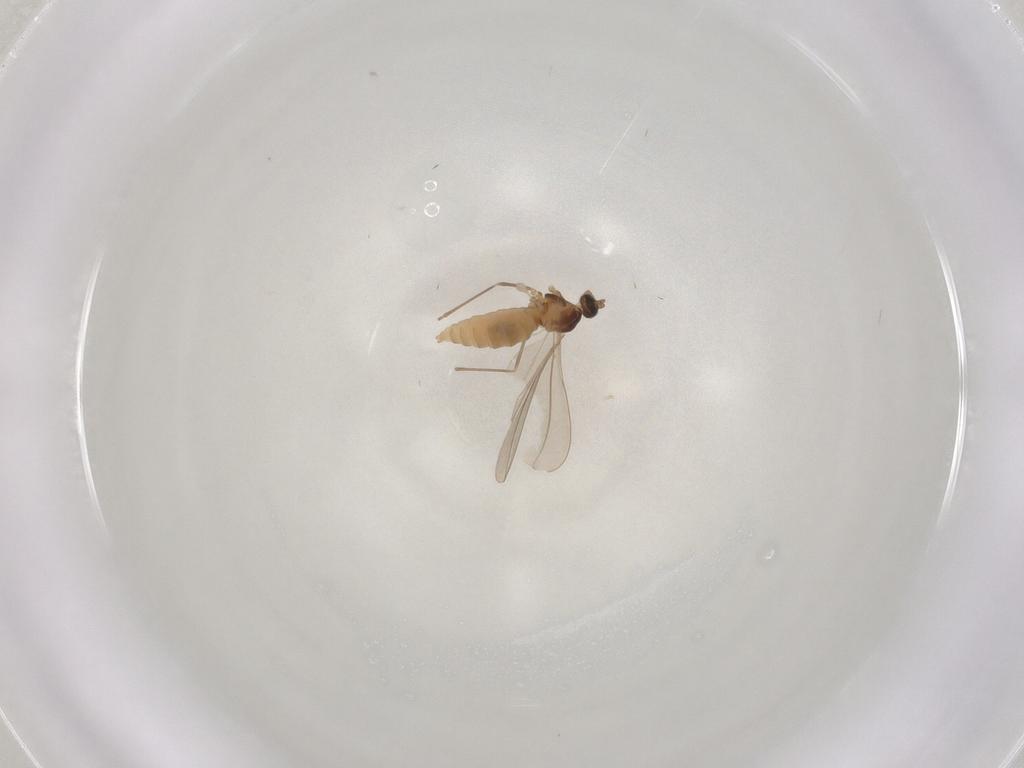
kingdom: Animalia
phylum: Arthropoda
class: Insecta
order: Diptera
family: Cecidomyiidae
